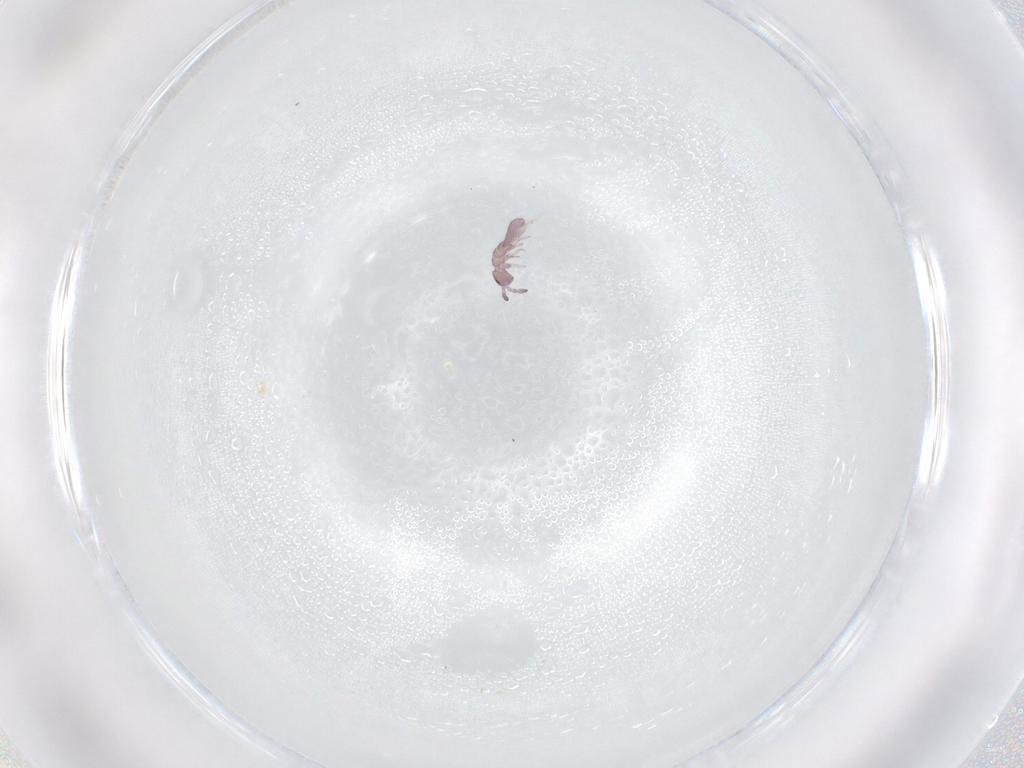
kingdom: Animalia
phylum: Arthropoda
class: Collembola
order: Entomobryomorpha
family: Isotomidae
